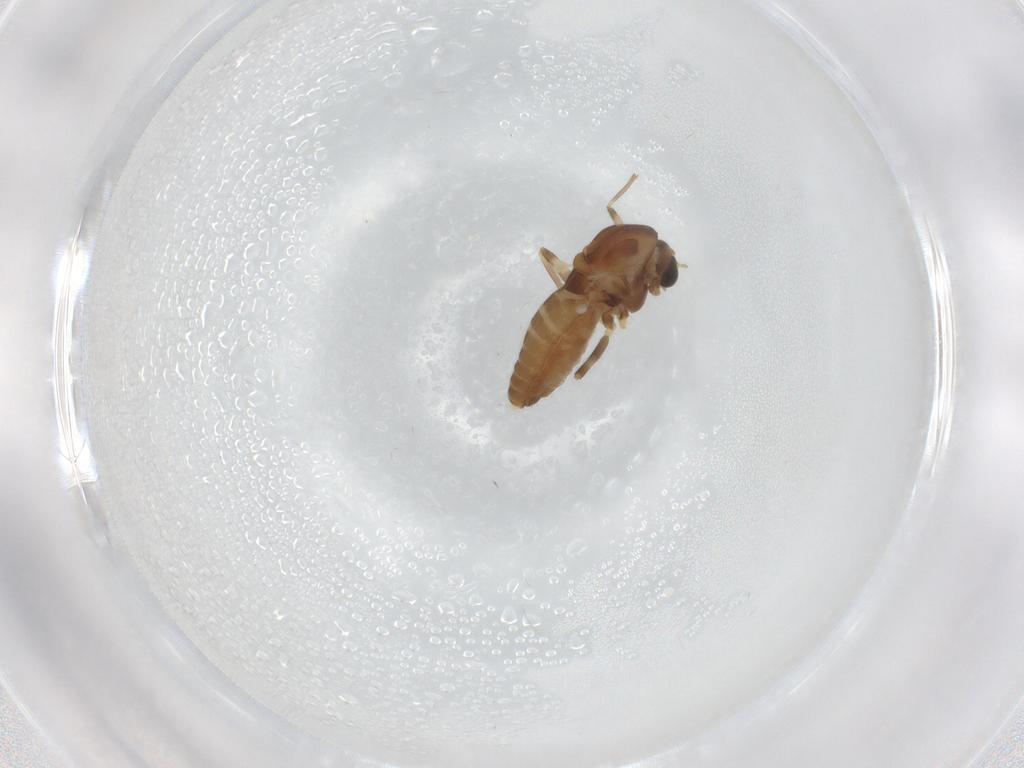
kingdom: Animalia
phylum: Arthropoda
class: Insecta
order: Diptera
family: Chironomidae
